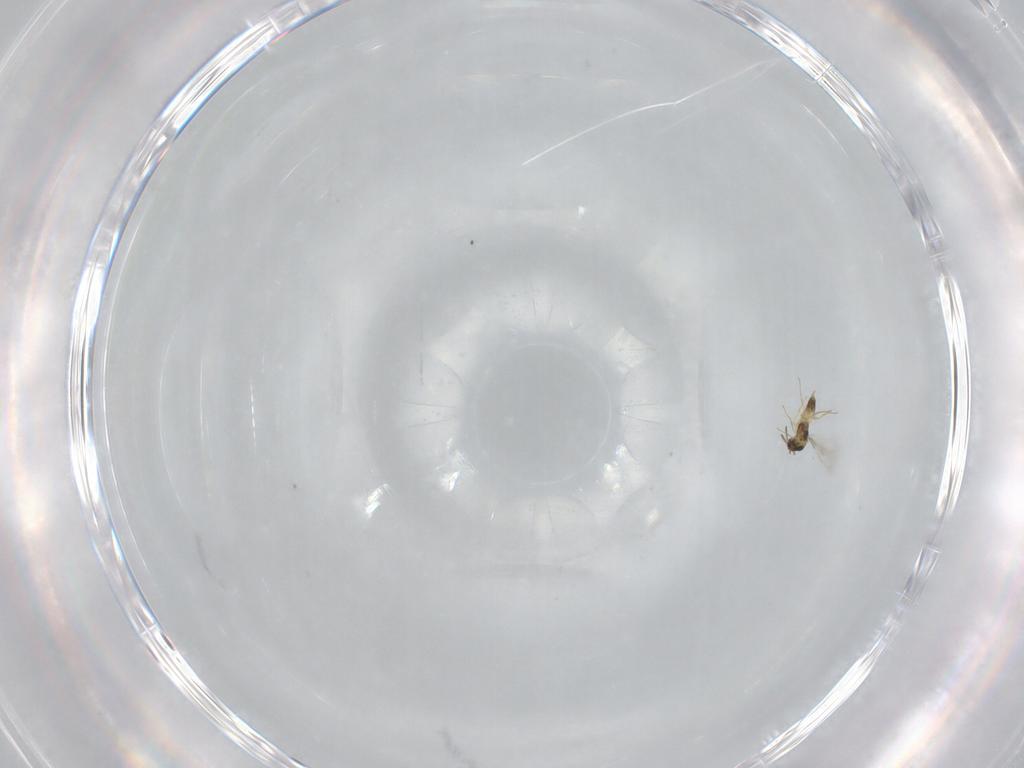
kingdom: Animalia
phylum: Arthropoda
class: Insecta
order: Hymenoptera
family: Mymaridae
